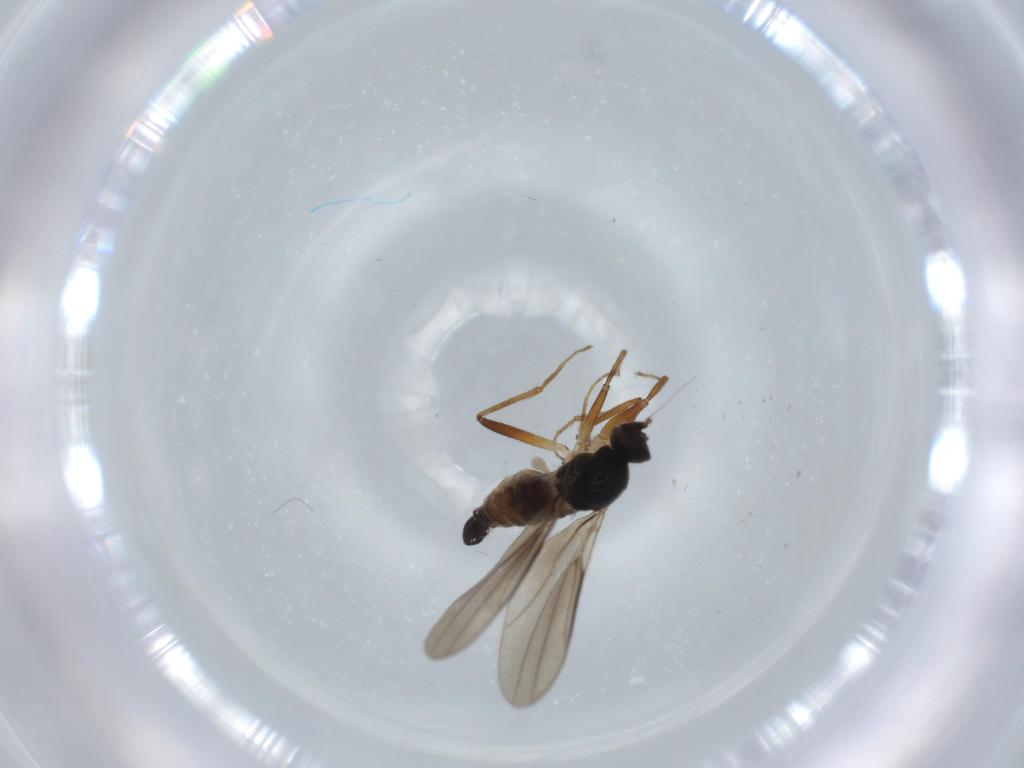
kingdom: Animalia
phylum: Arthropoda
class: Insecta
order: Diptera
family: Hybotidae
